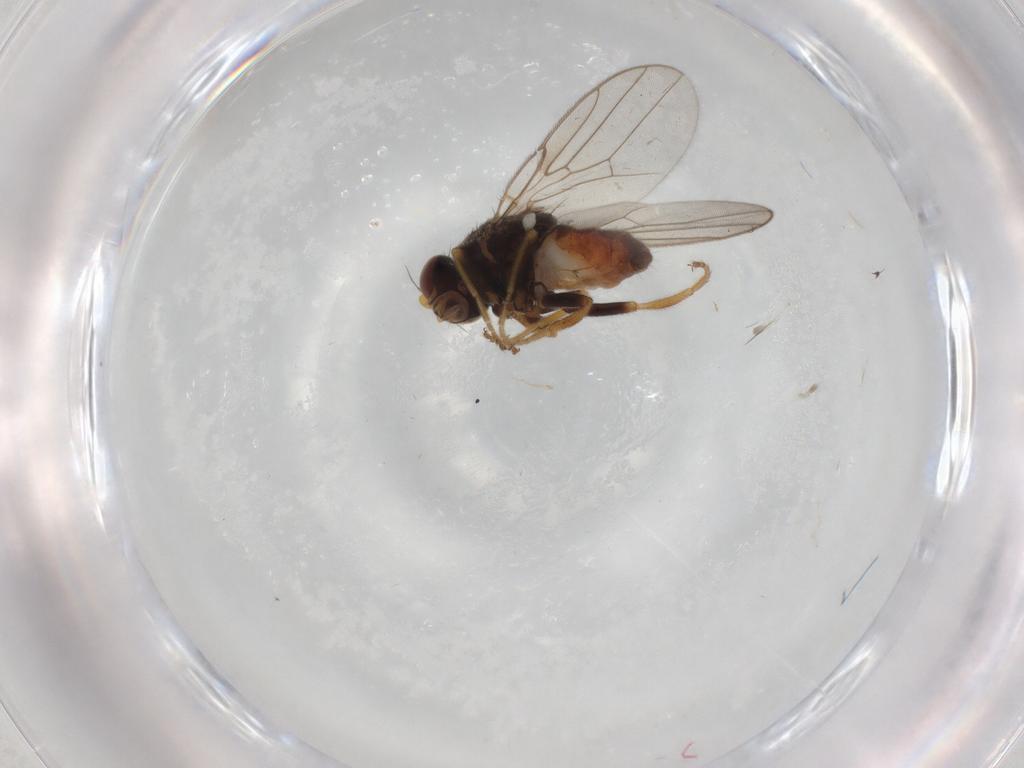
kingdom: Animalia
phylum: Arthropoda
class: Insecta
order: Diptera
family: Chloropidae
